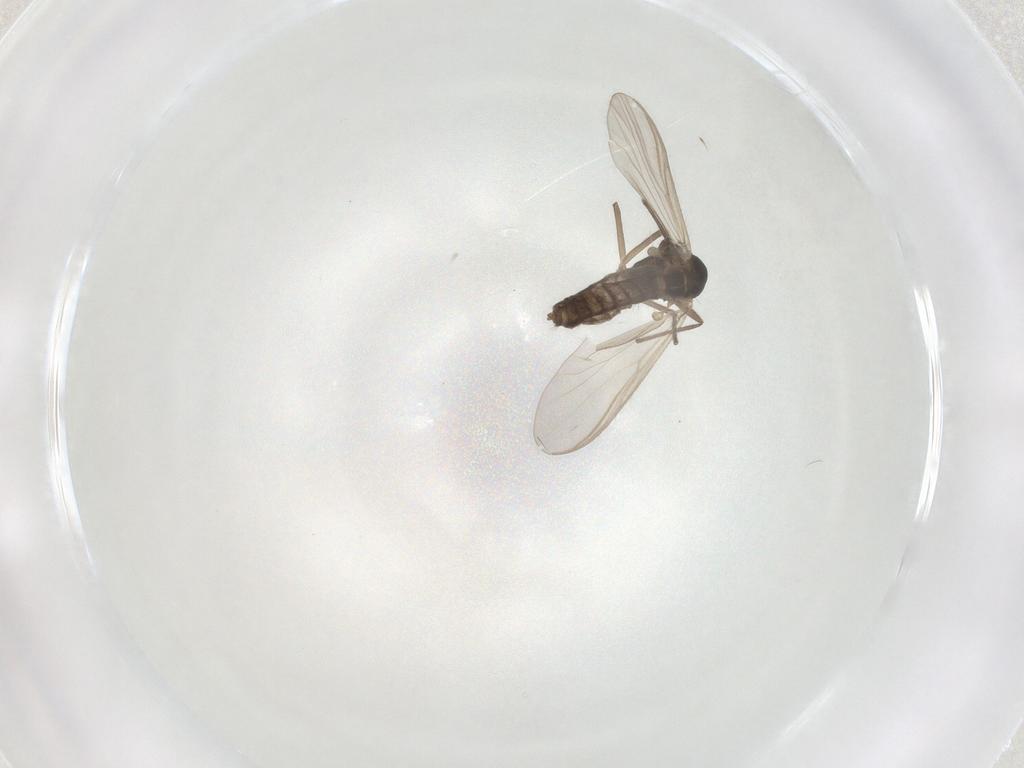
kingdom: Animalia
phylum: Arthropoda
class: Insecta
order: Diptera
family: Chironomidae
